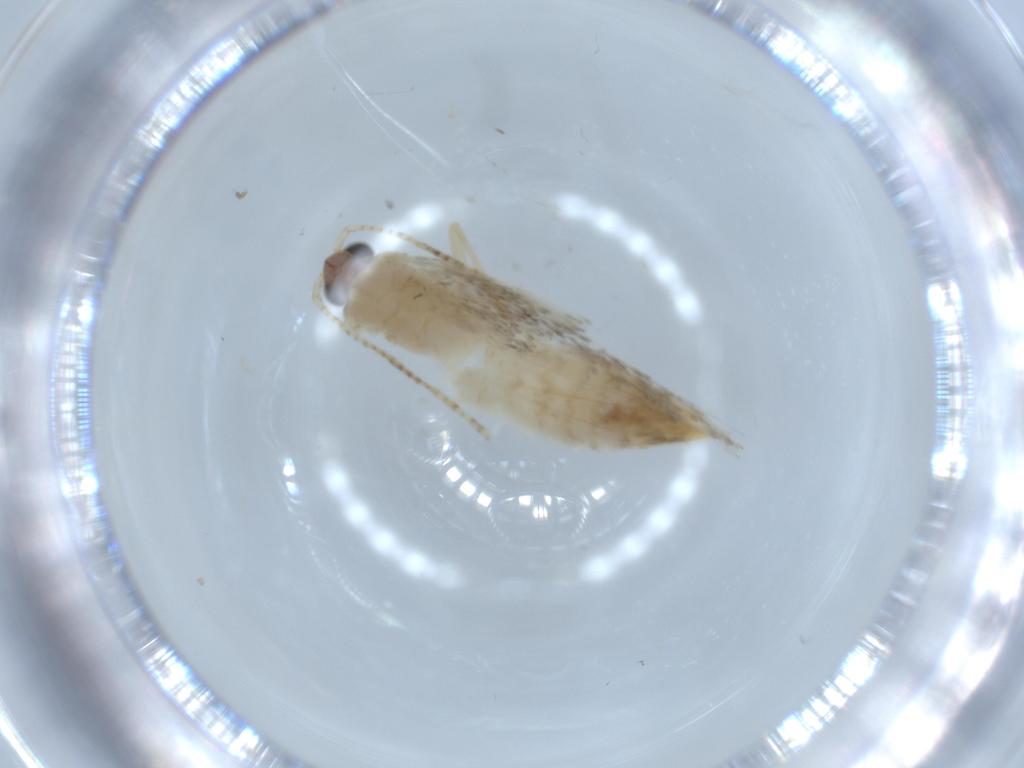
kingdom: Animalia
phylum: Arthropoda
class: Insecta
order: Lepidoptera
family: Tineidae
